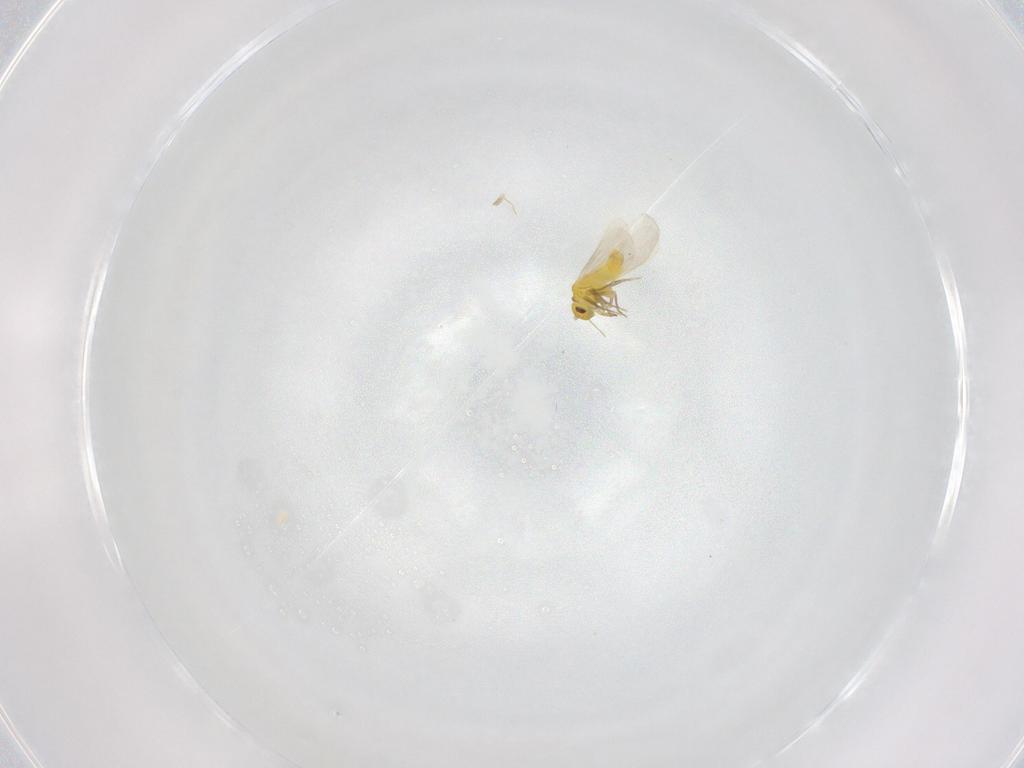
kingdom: Animalia
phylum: Arthropoda
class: Insecta
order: Hemiptera
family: Aleyrodidae
